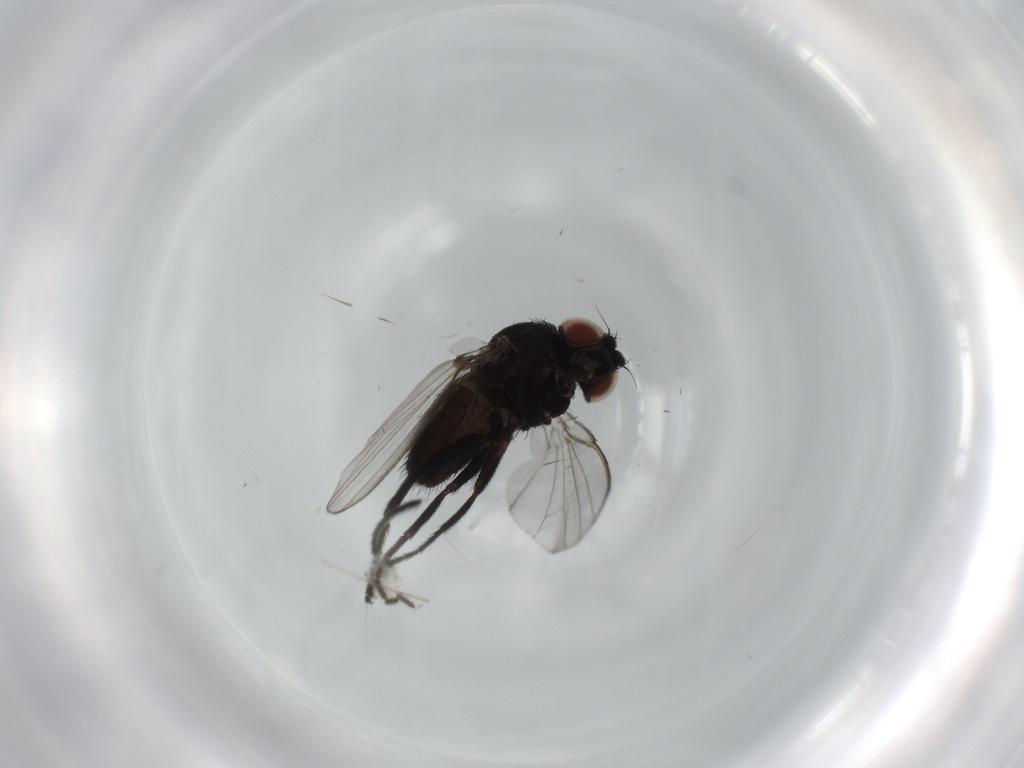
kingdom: Animalia
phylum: Arthropoda
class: Insecta
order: Diptera
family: Milichiidae
